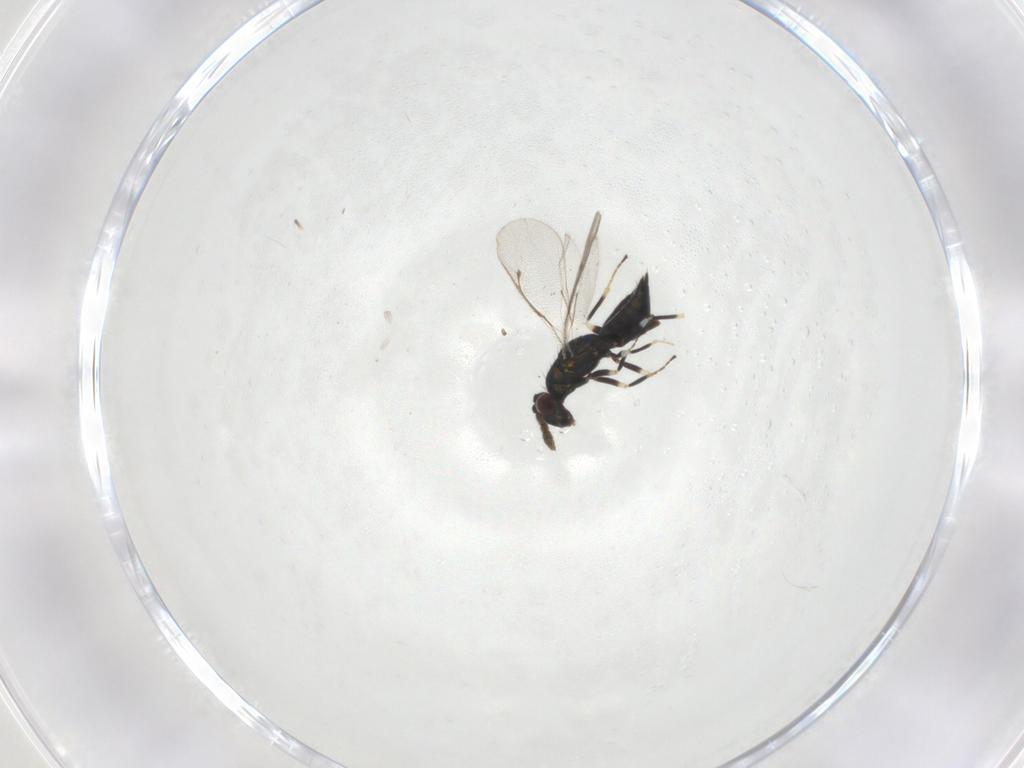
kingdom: Animalia
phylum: Arthropoda
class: Insecta
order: Hymenoptera
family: Eulophidae
